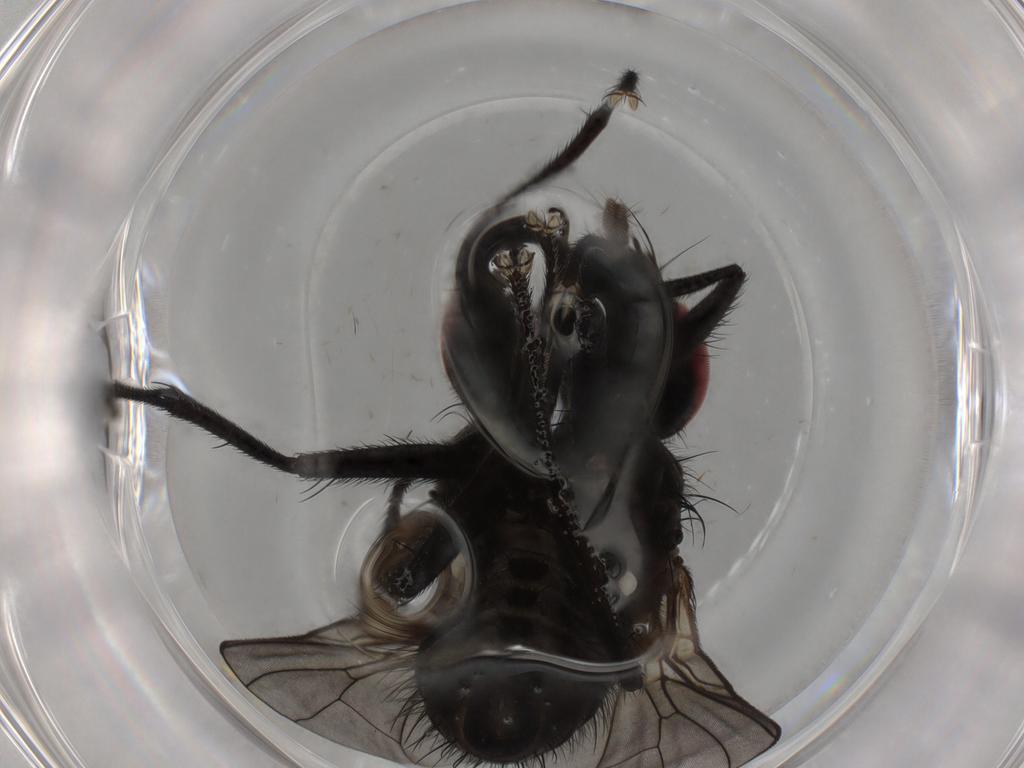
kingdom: Animalia
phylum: Arthropoda
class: Insecta
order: Diptera
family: Muscidae
